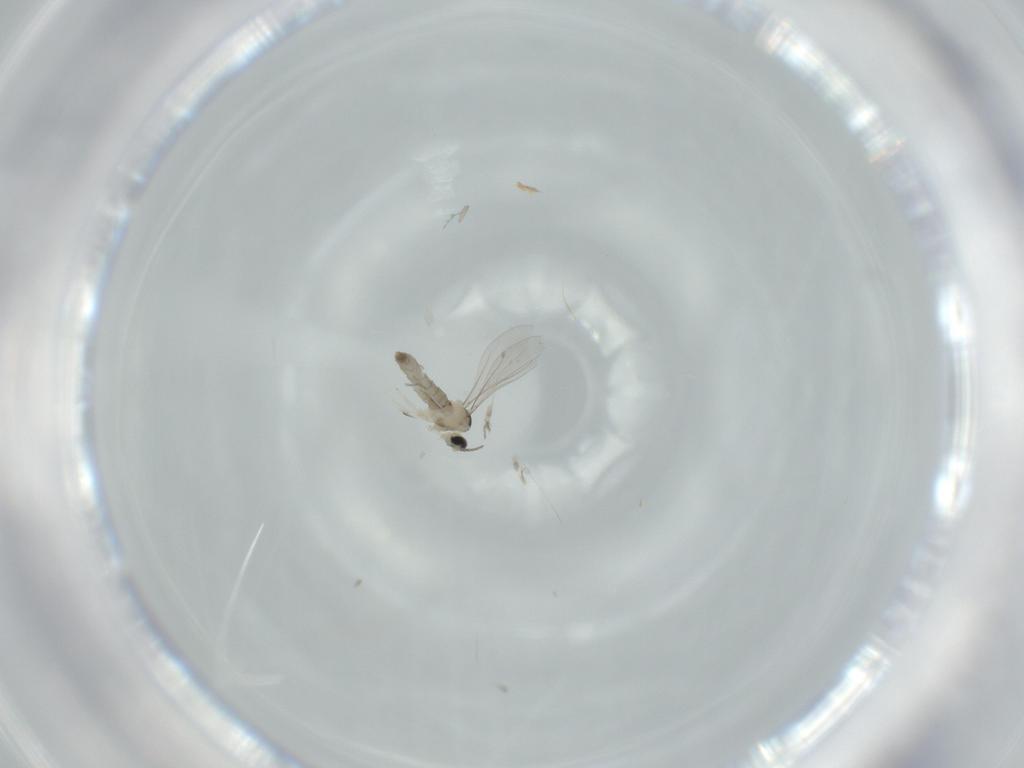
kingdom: Animalia
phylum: Arthropoda
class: Insecta
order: Diptera
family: Chloropidae
